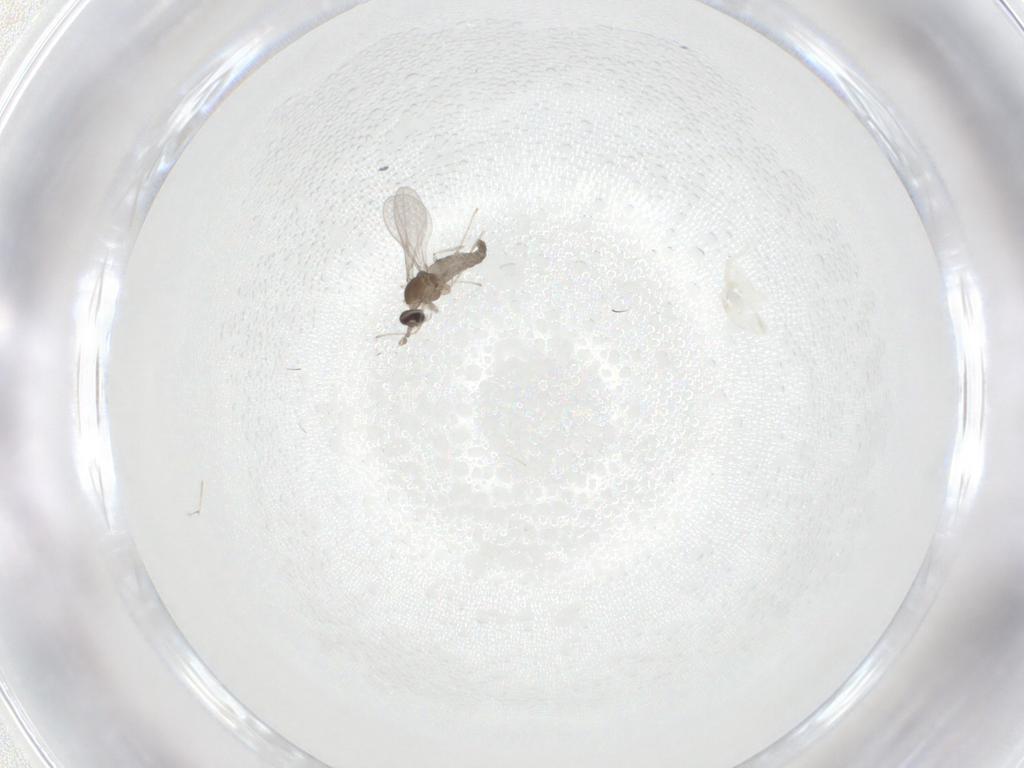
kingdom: Animalia
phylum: Arthropoda
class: Insecta
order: Diptera
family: Cecidomyiidae
